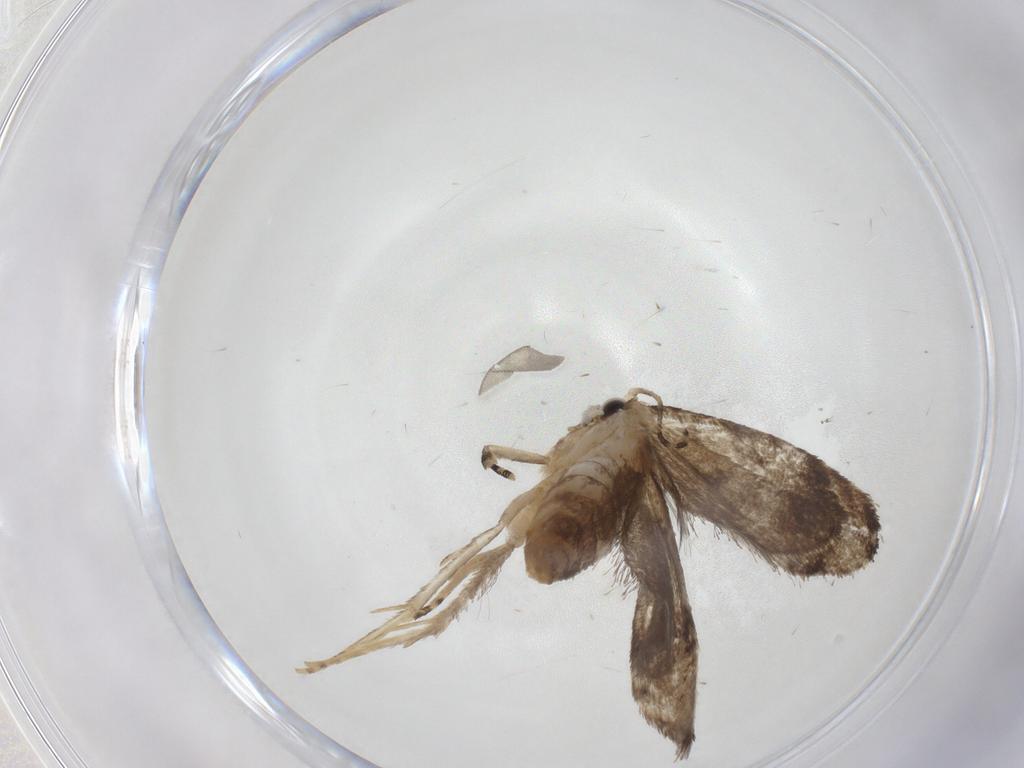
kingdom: Animalia
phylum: Arthropoda
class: Insecta
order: Lepidoptera
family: Tineidae
